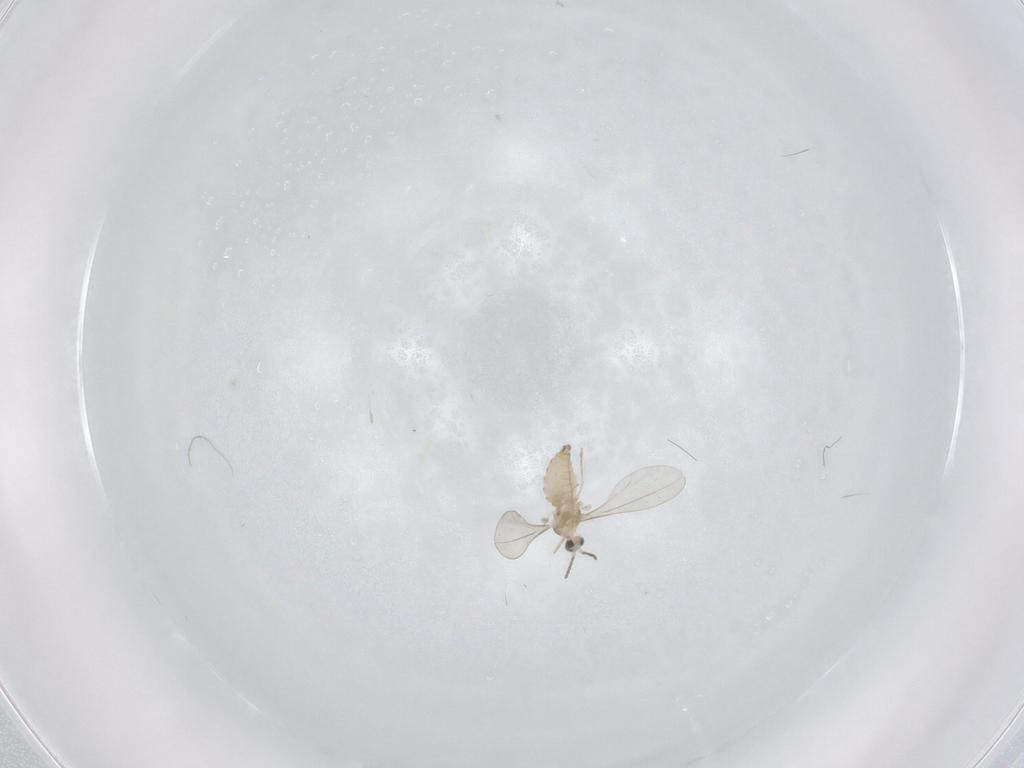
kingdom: Animalia
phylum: Arthropoda
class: Insecta
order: Diptera
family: Cecidomyiidae
